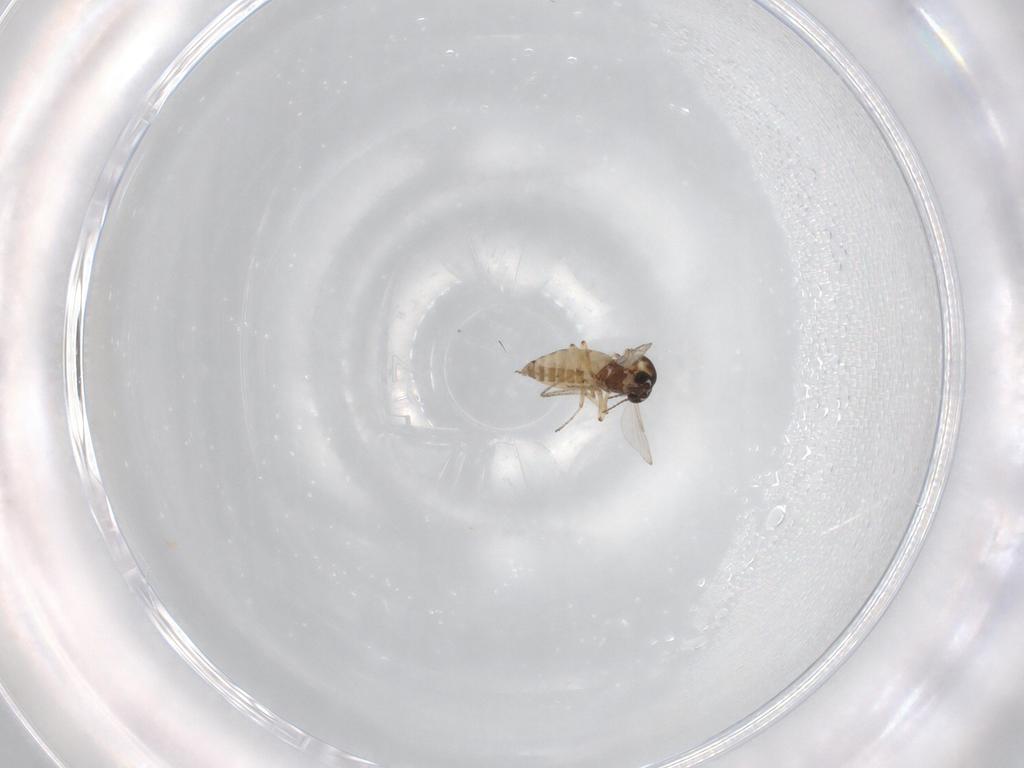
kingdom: Animalia
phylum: Arthropoda
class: Insecta
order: Diptera
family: Ceratopogonidae
